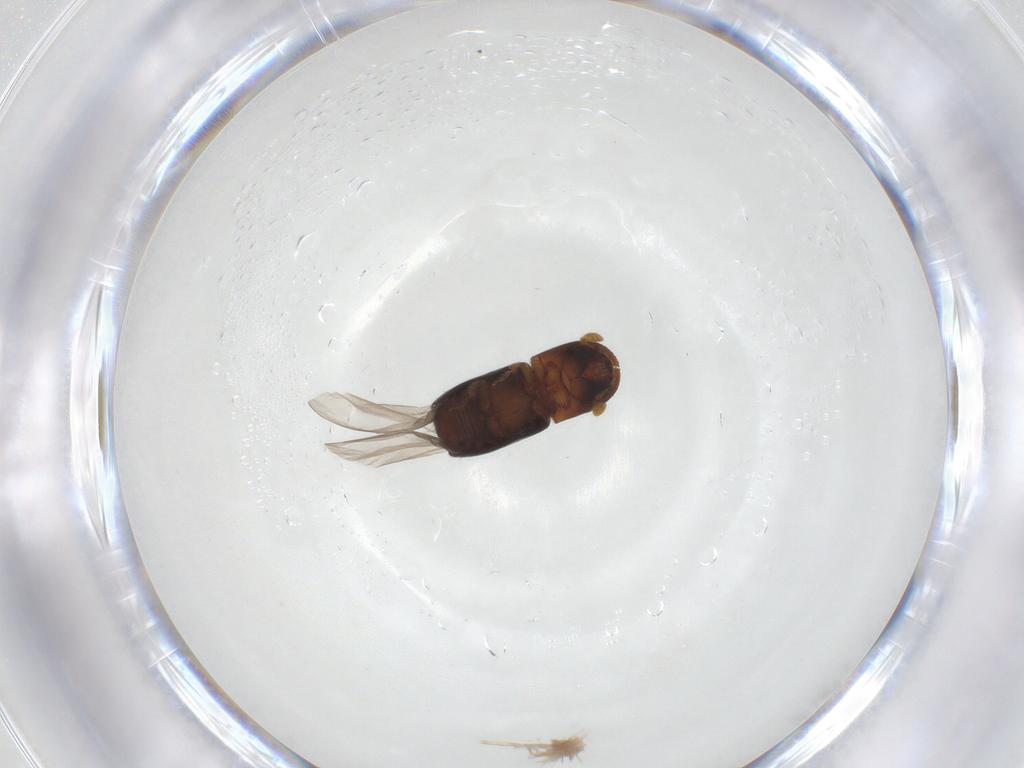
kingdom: Animalia
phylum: Arthropoda
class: Insecta
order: Coleoptera
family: Curculionidae
